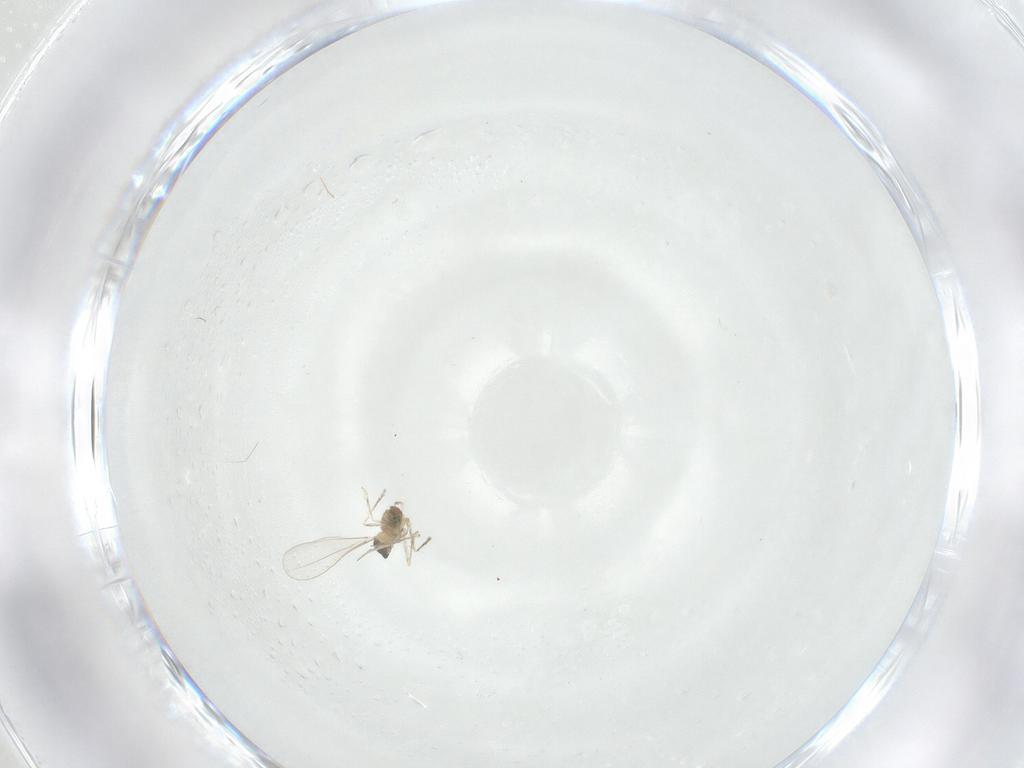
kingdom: Animalia
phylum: Arthropoda
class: Insecta
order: Diptera
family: Cecidomyiidae
